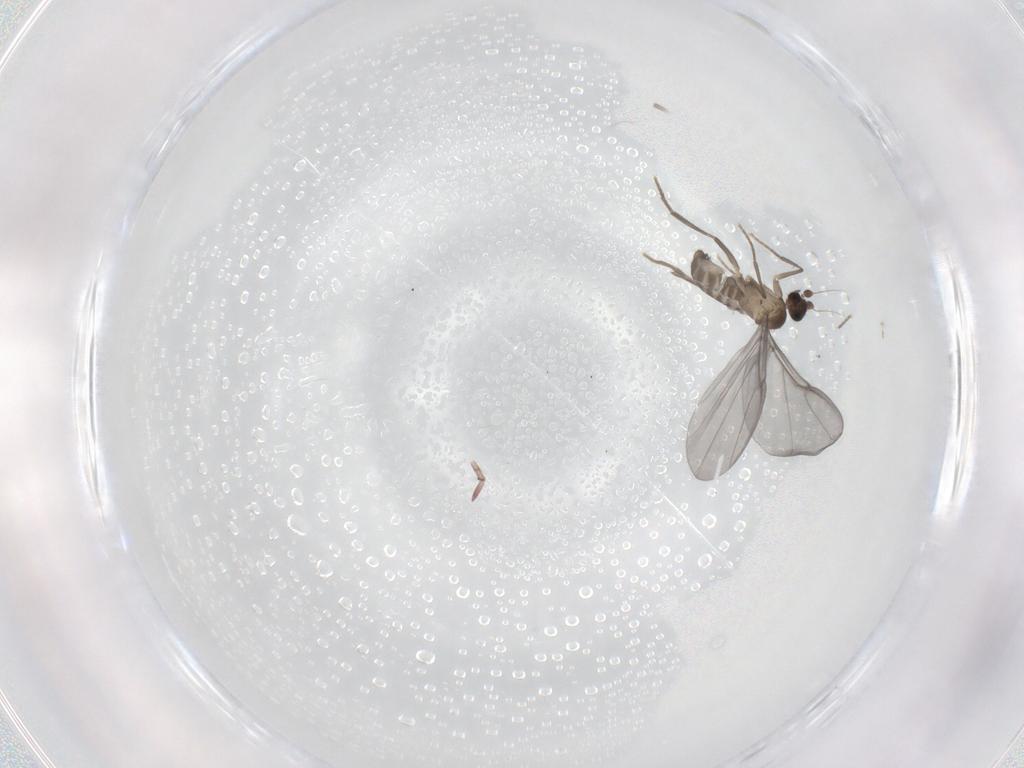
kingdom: Animalia
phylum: Arthropoda
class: Insecta
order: Diptera
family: Phoridae
